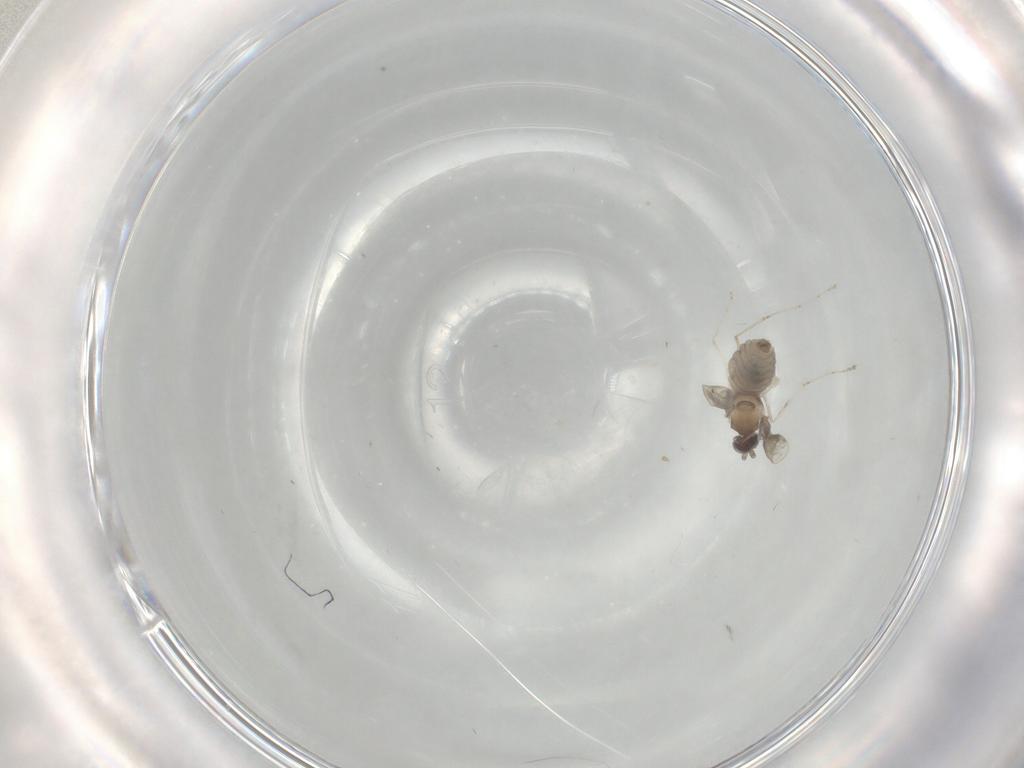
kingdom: Animalia
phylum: Arthropoda
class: Insecta
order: Diptera
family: Cecidomyiidae
